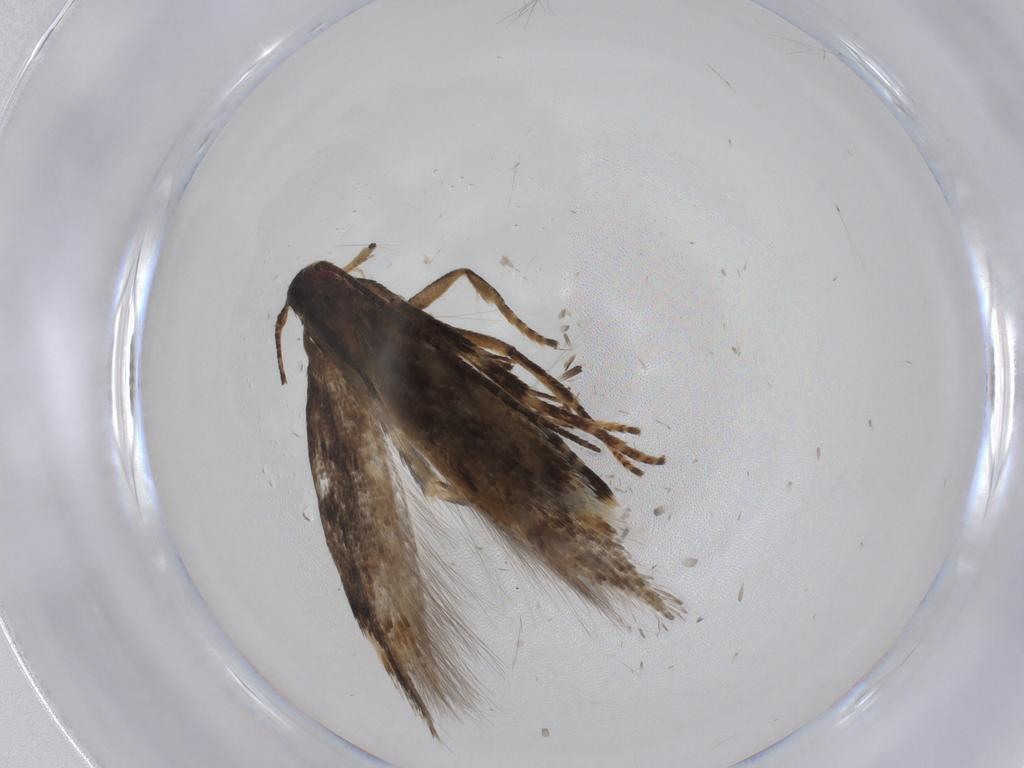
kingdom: Animalia
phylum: Arthropoda
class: Insecta
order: Lepidoptera
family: Momphidae
